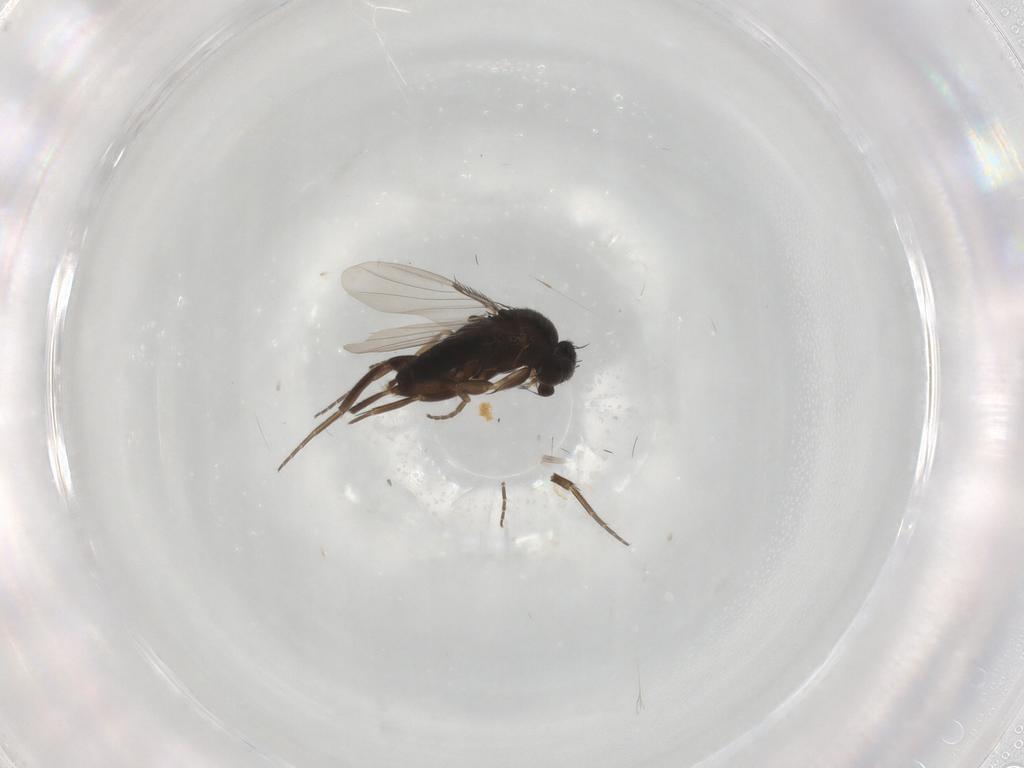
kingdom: Animalia
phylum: Arthropoda
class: Insecta
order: Diptera
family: Phoridae
